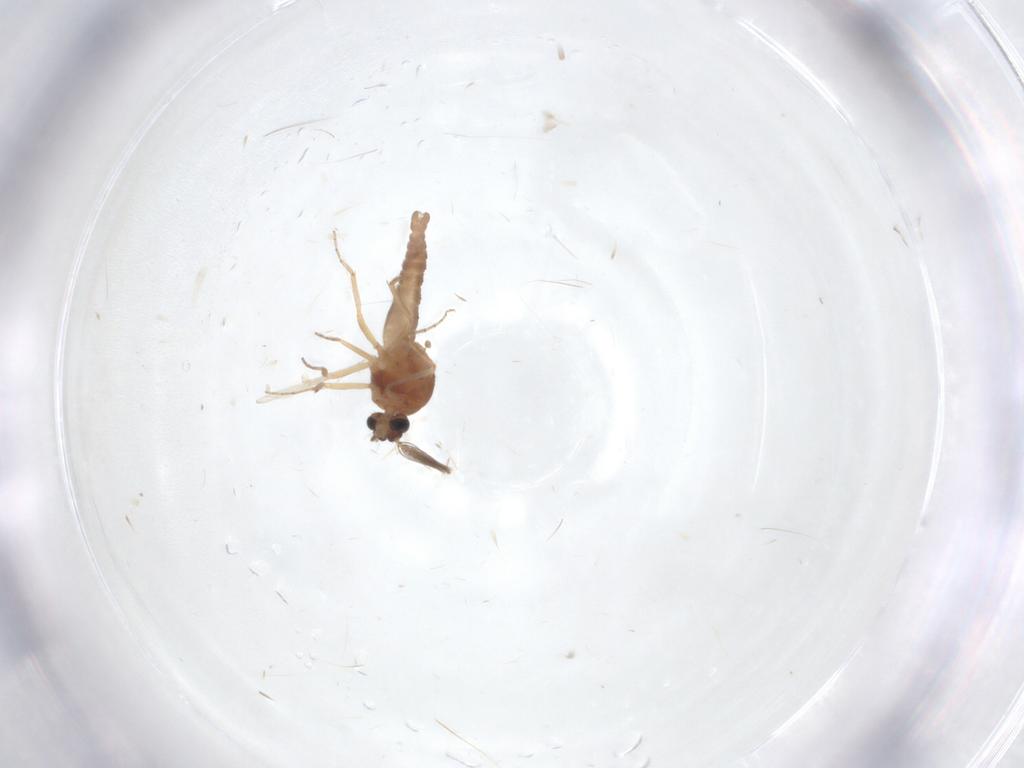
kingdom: Animalia
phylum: Arthropoda
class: Insecta
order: Diptera
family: Ceratopogonidae
